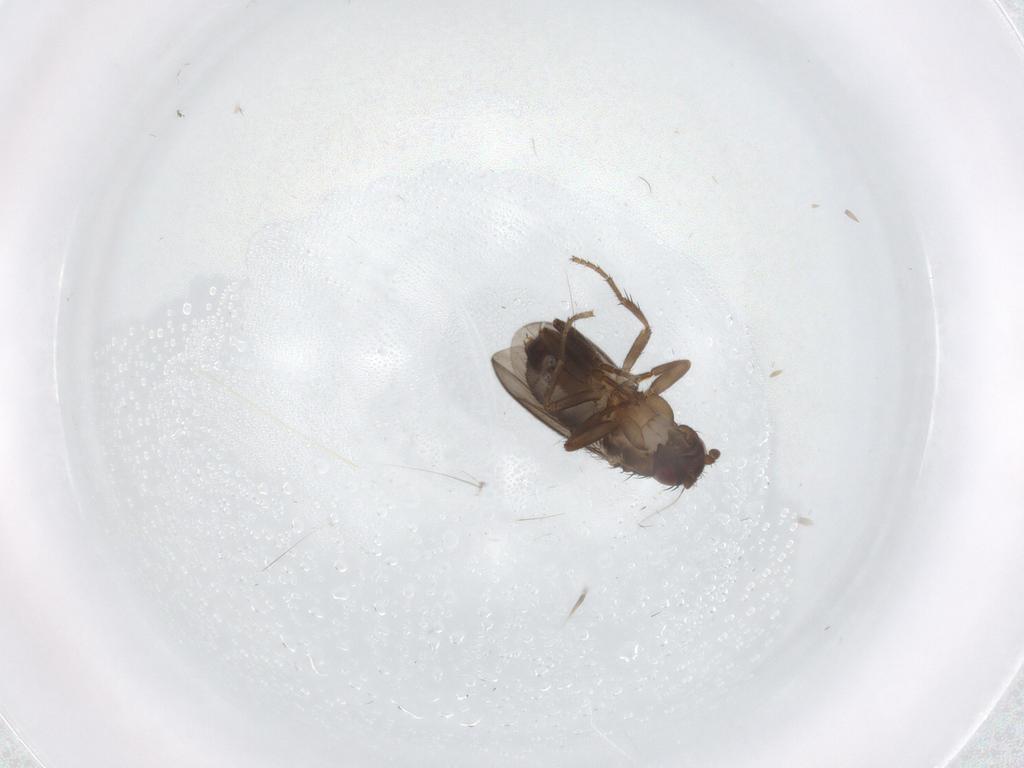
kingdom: Animalia
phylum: Arthropoda
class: Insecta
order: Diptera
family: Sphaeroceridae
